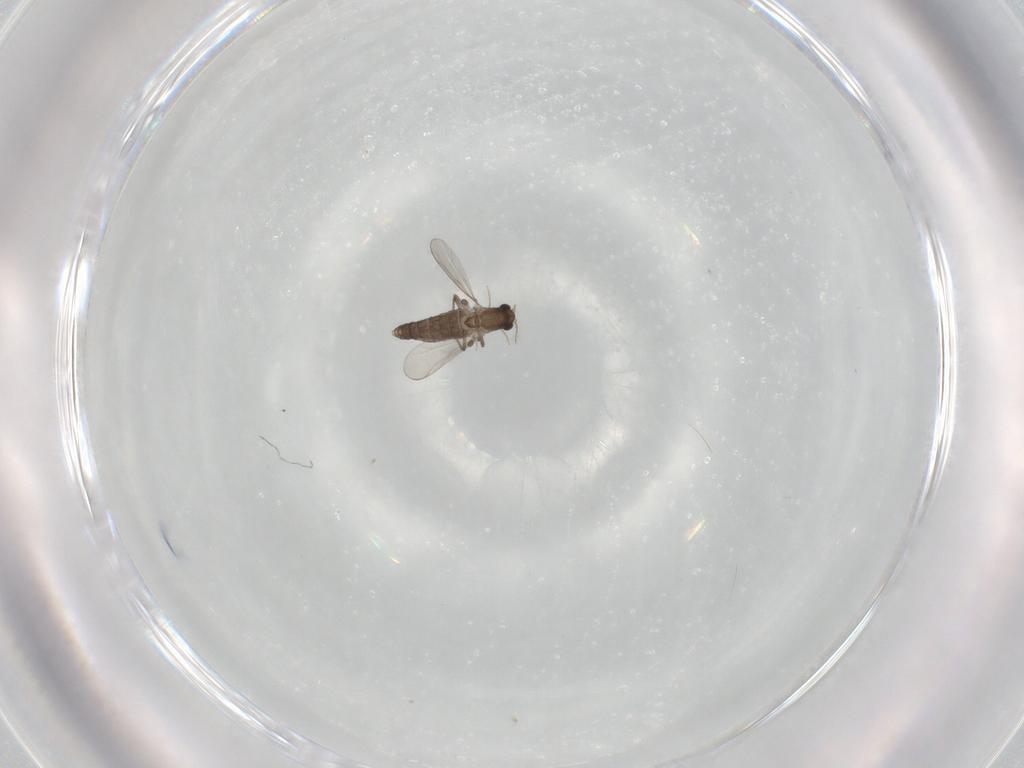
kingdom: Animalia
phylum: Arthropoda
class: Insecta
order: Diptera
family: Chironomidae
